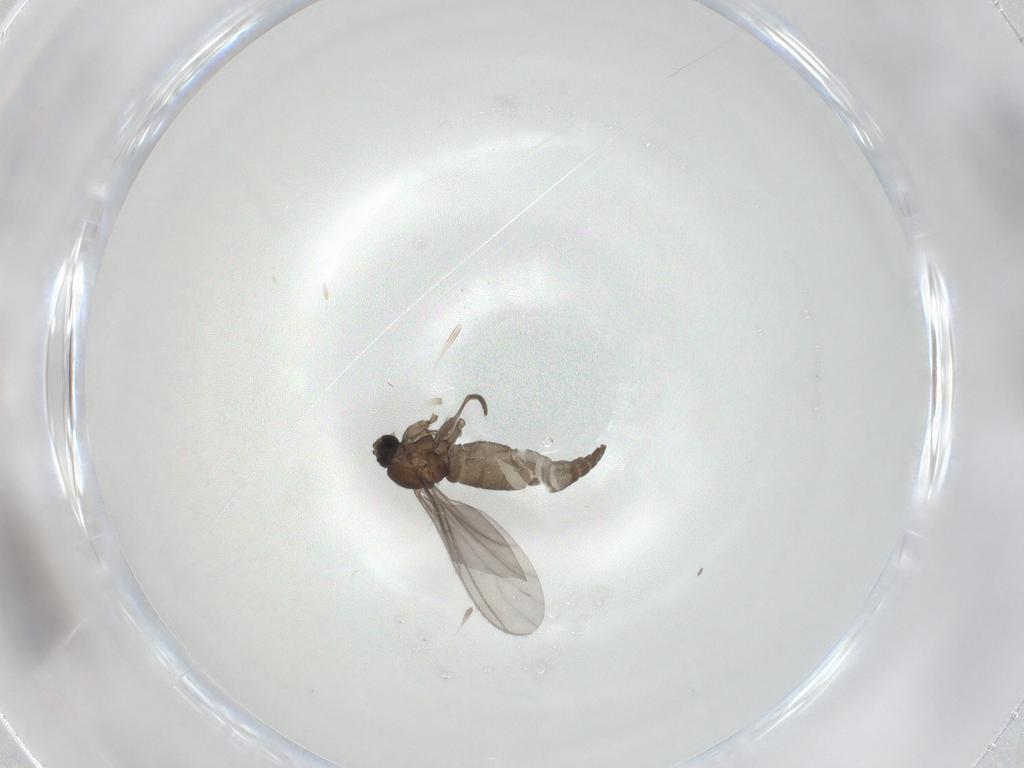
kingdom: Animalia
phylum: Arthropoda
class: Insecta
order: Diptera
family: Sciaridae
